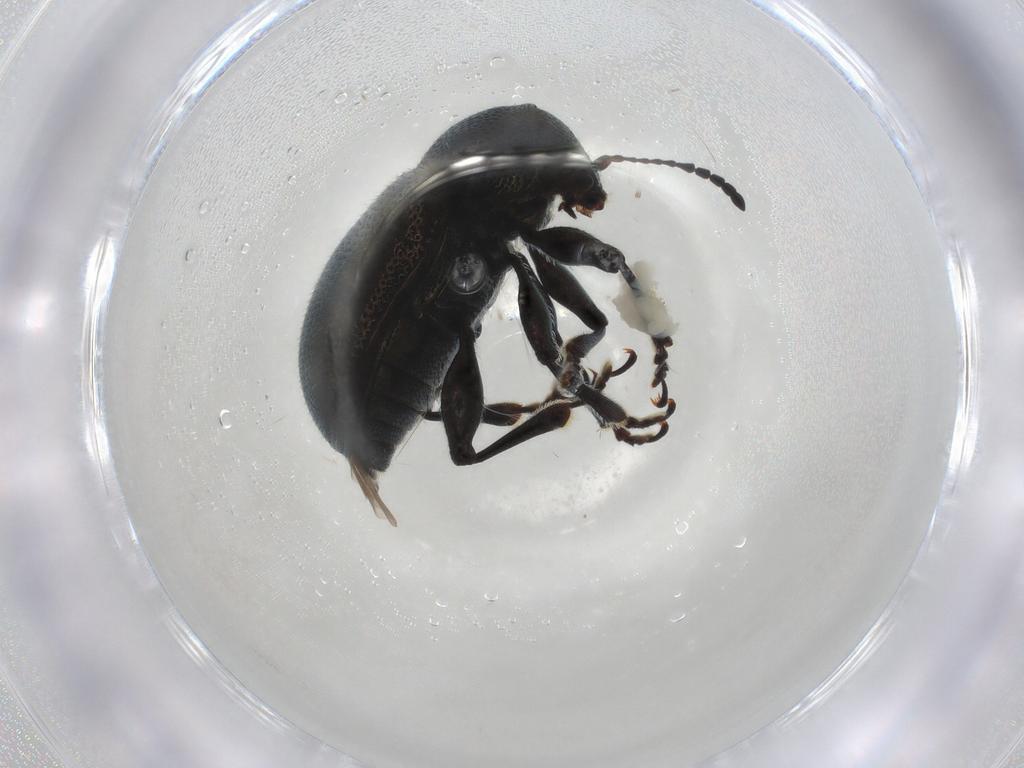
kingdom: Animalia
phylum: Arthropoda
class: Insecta
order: Coleoptera
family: Chrysomelidae
